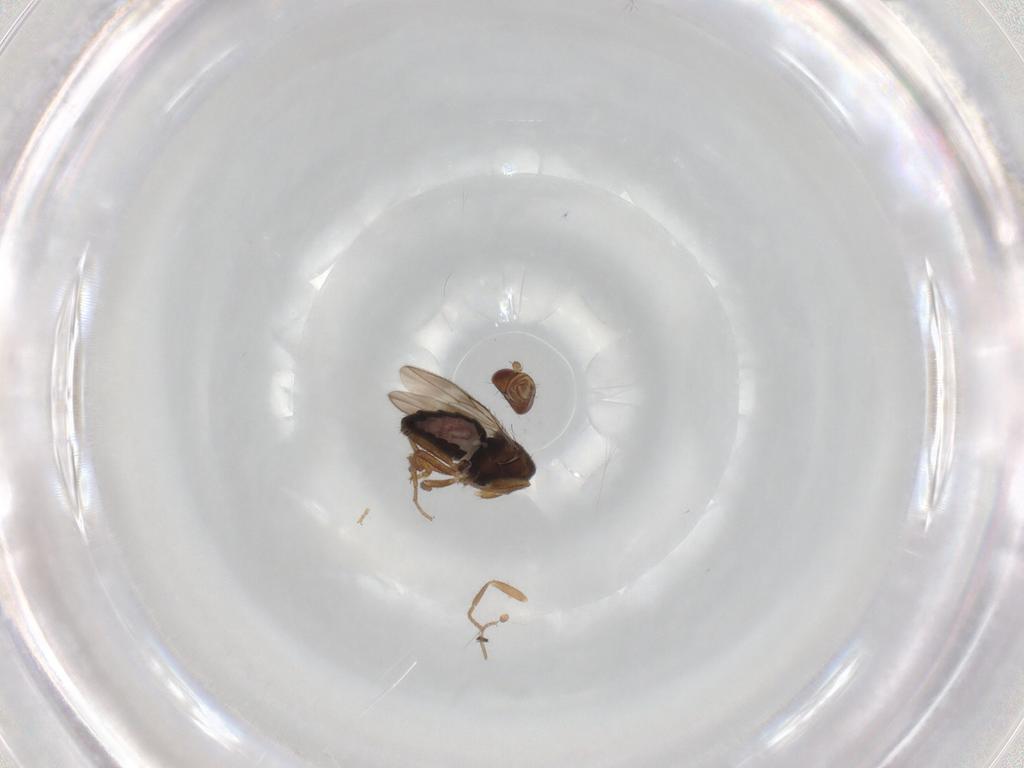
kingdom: Animalia
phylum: Arthropoda
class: Insecta
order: Diptera
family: Sphaeroceridae
